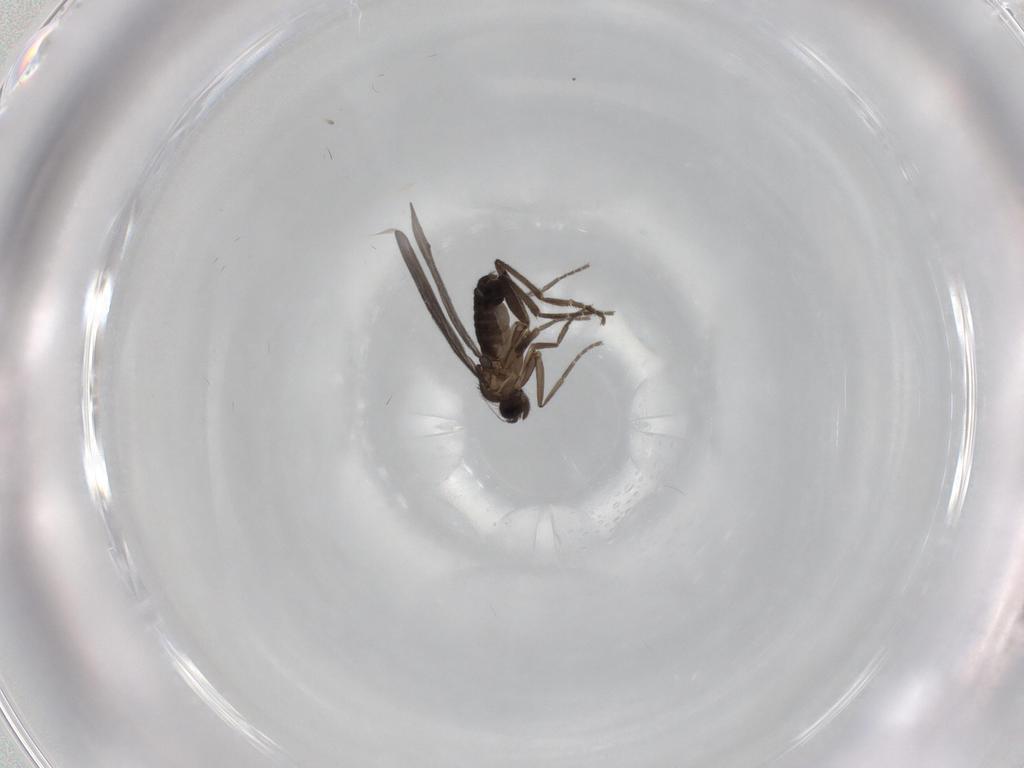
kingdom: Animalia
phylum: Arthropoda
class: Insecta
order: Diptera
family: Phoridae
